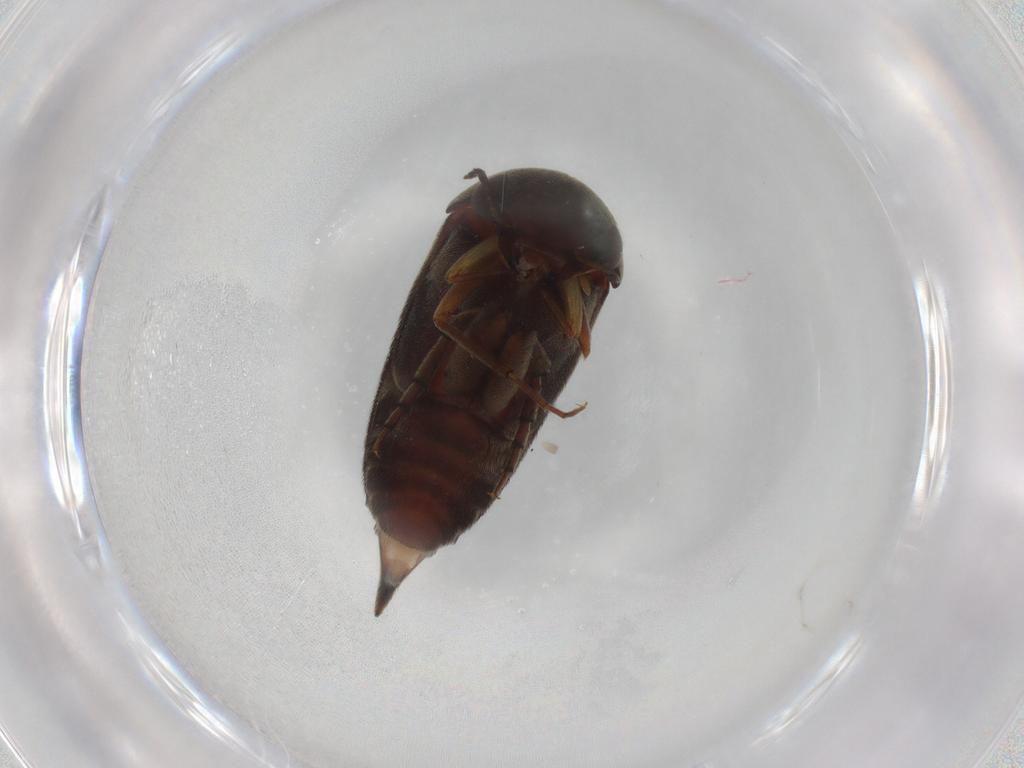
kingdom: Animalia
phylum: Arthropoda
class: Insecta
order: Coleoptera
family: Mordellidae
